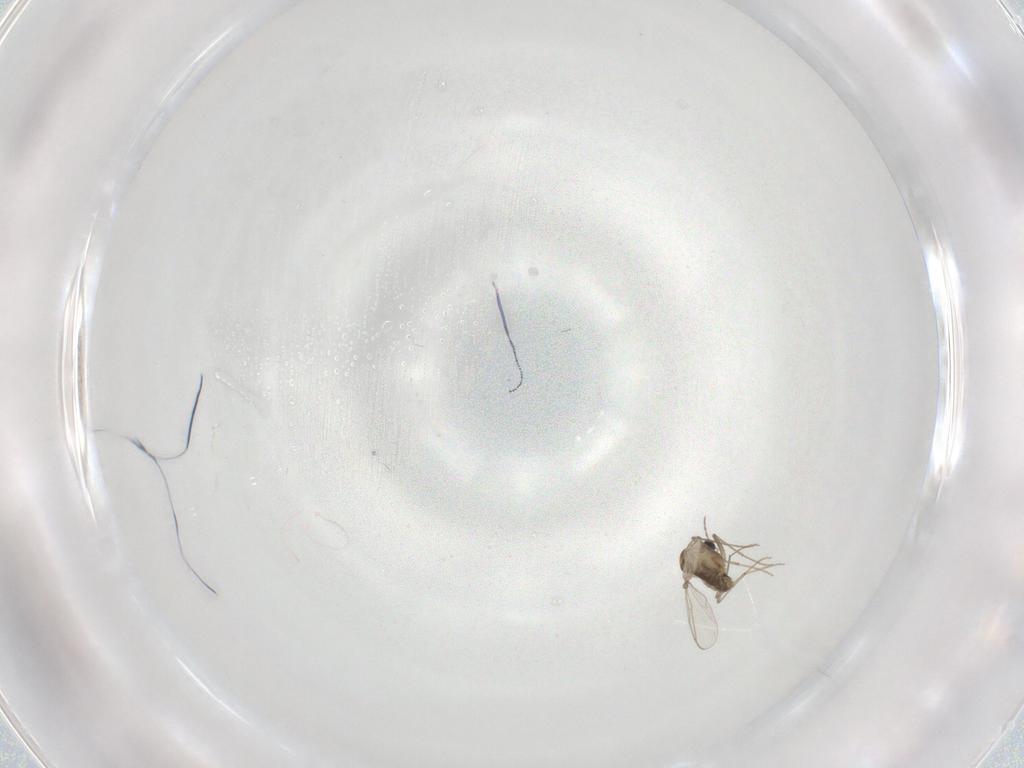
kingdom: Animalia
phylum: Arthropoda
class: Insecta
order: Diptera
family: Chironomidae
